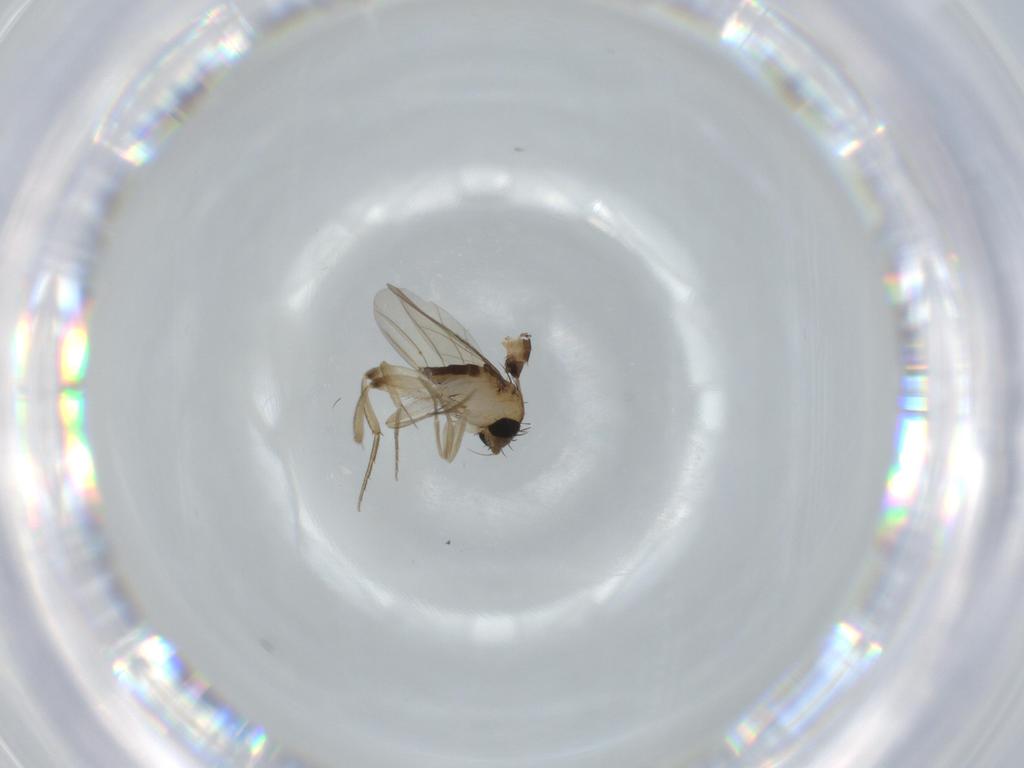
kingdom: Animalia
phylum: Arthropoda
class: Insecta
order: Diptera
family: Phoridae
